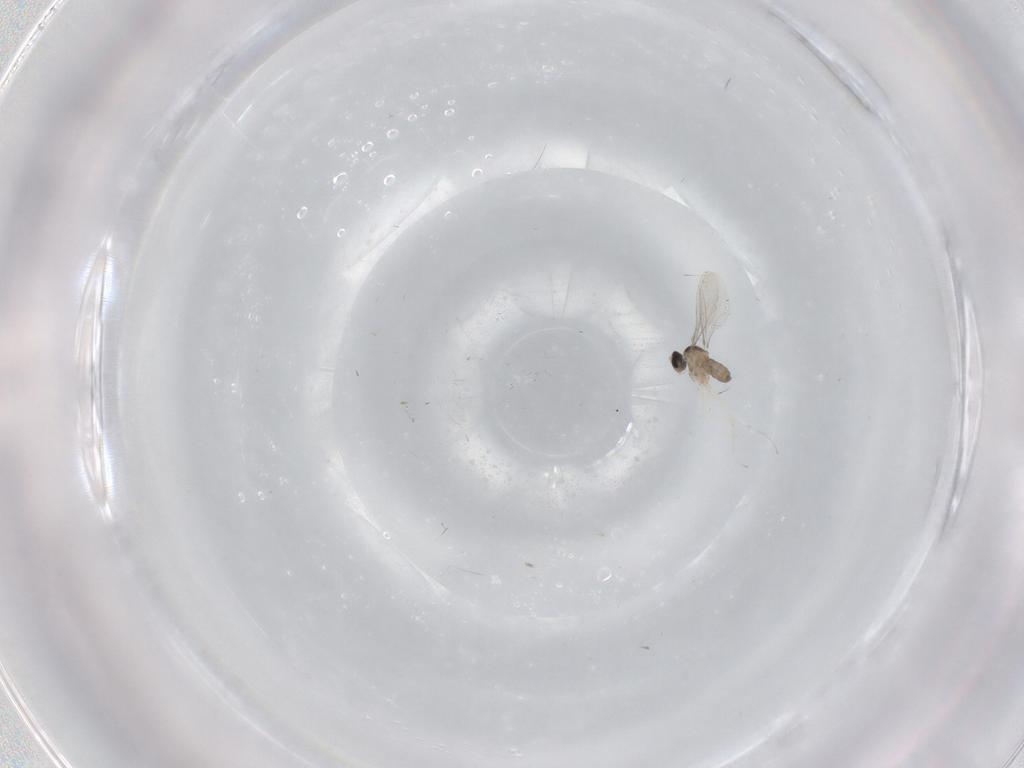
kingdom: Animalia
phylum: Arthropoda
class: Insecta
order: Diptera
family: Cecidomyiidae
